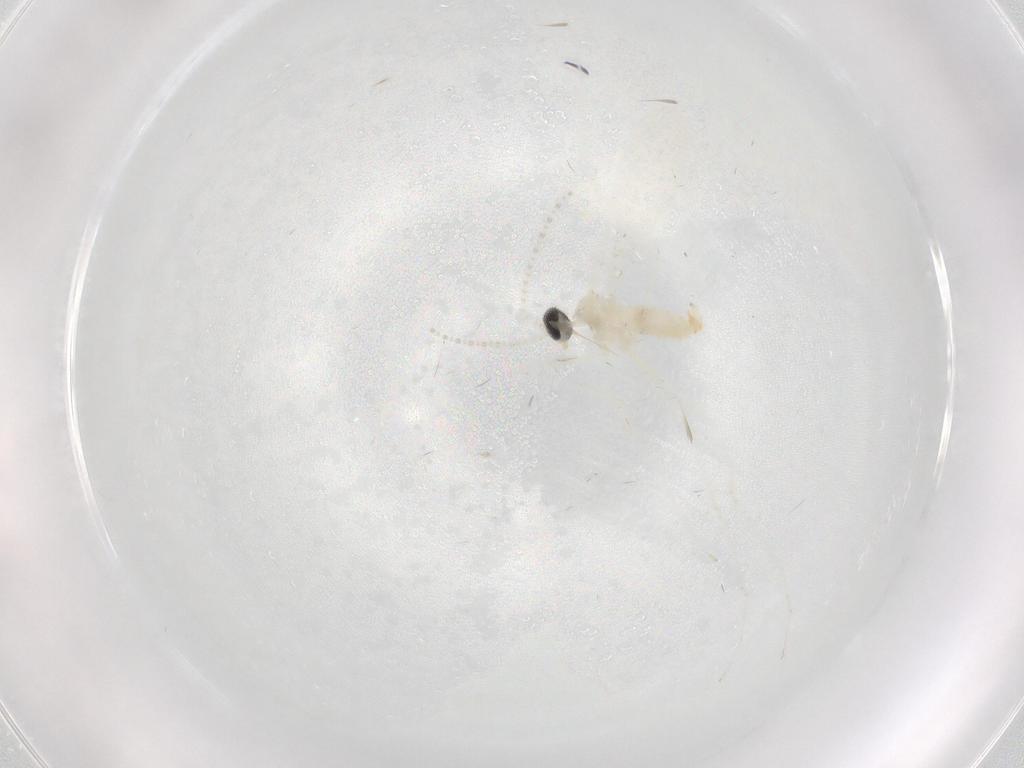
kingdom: Animalia
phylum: Arthropoda
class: Insecta
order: Diptera
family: Cecidomyiidae
